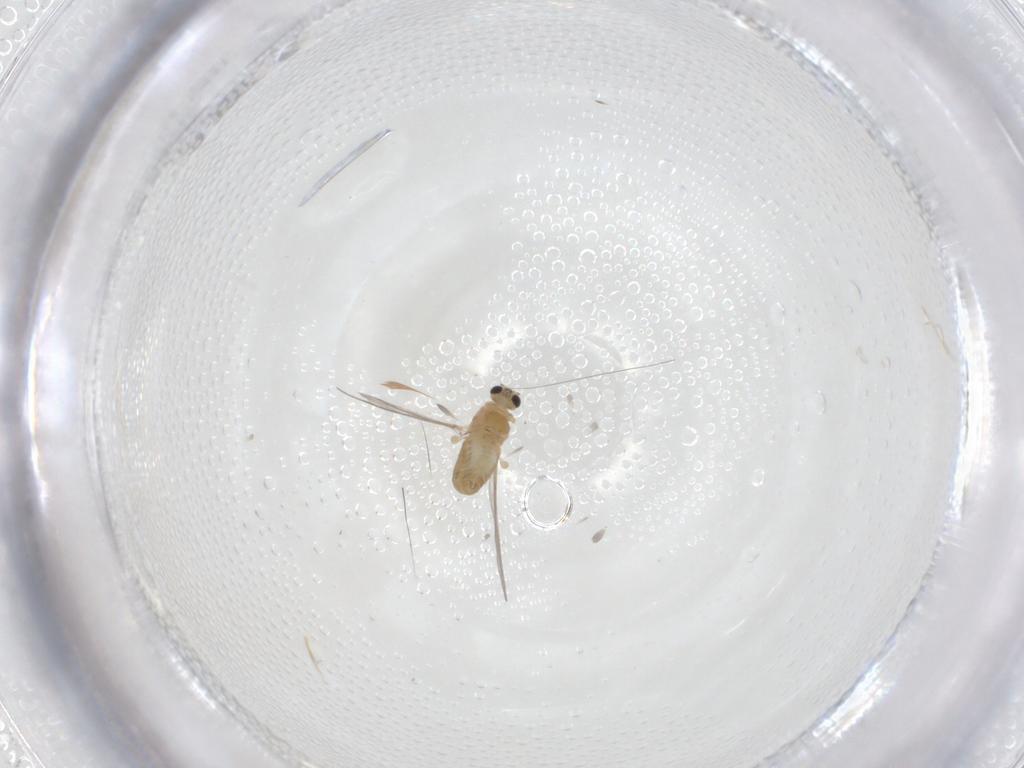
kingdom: Animalia
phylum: Arthropoda
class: Insecta
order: Diptera
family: Chironomidae
